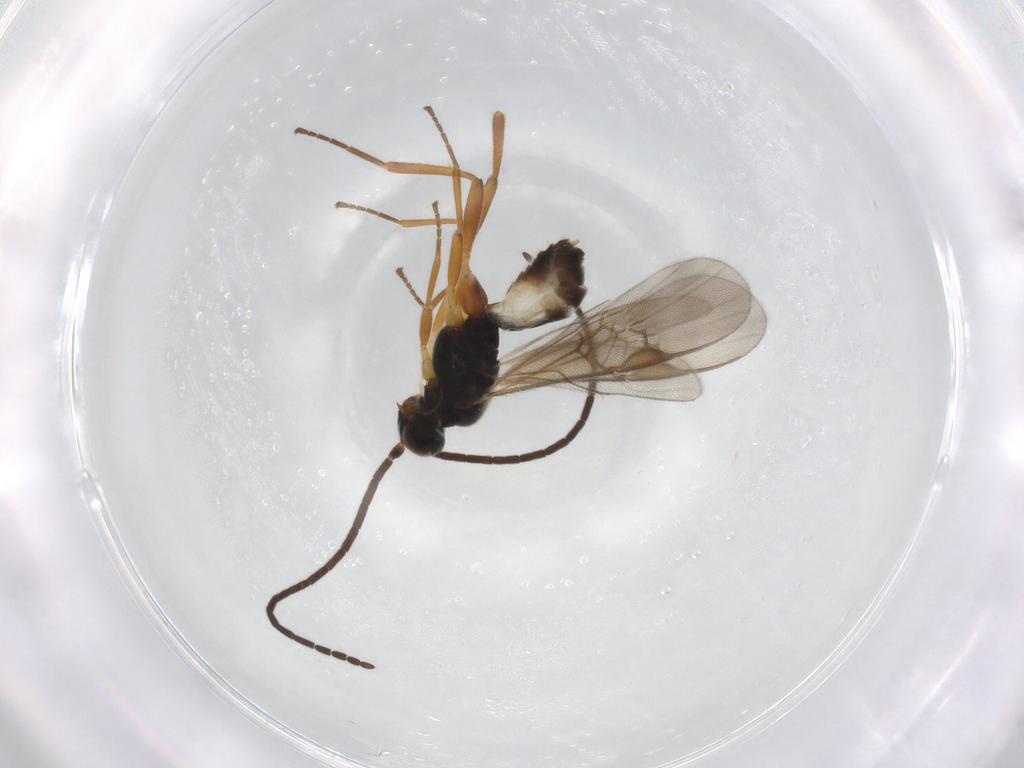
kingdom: Animalia
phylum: Arthropoda
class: Insecta
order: Hymenoptera
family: Braconidae
